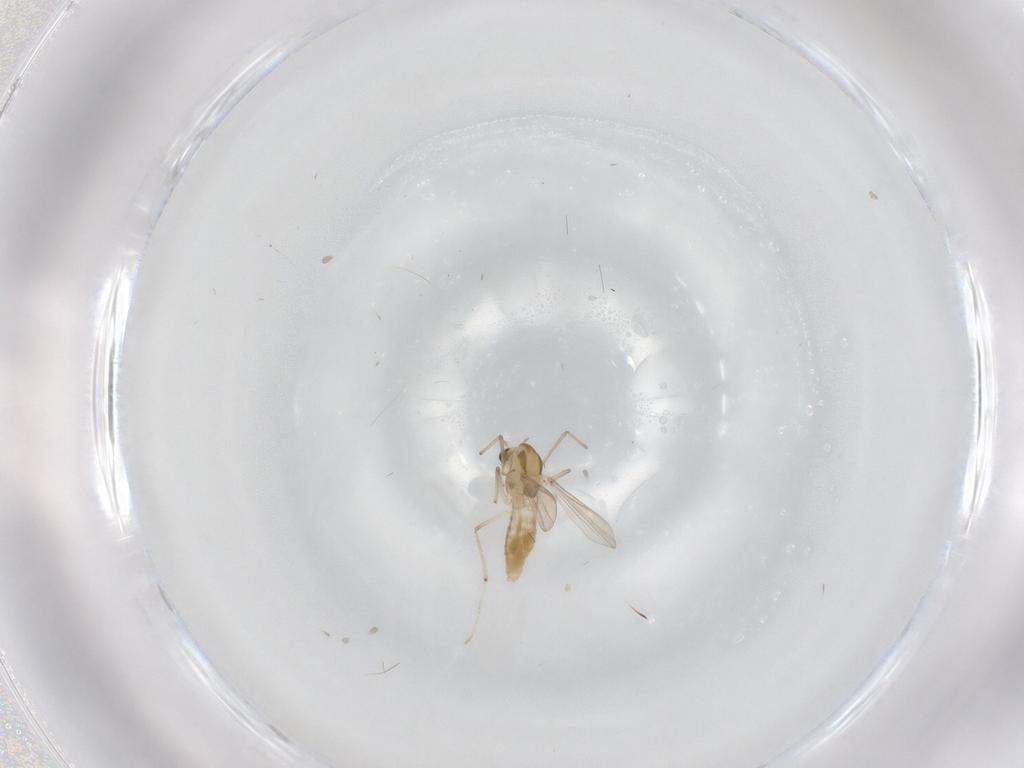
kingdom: Animalia
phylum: Arthropoda
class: Insecta
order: Diptera
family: Chironomidae
